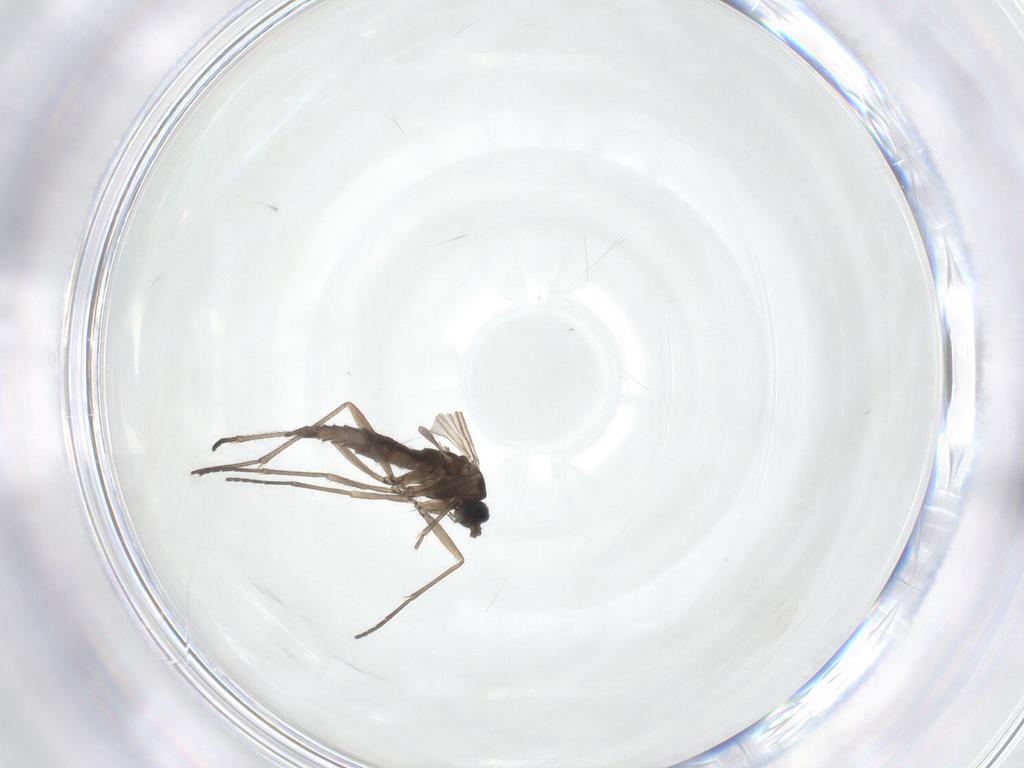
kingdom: Animalia
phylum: Arthropoda
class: Insecta
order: Diptera
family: Sciaridae
